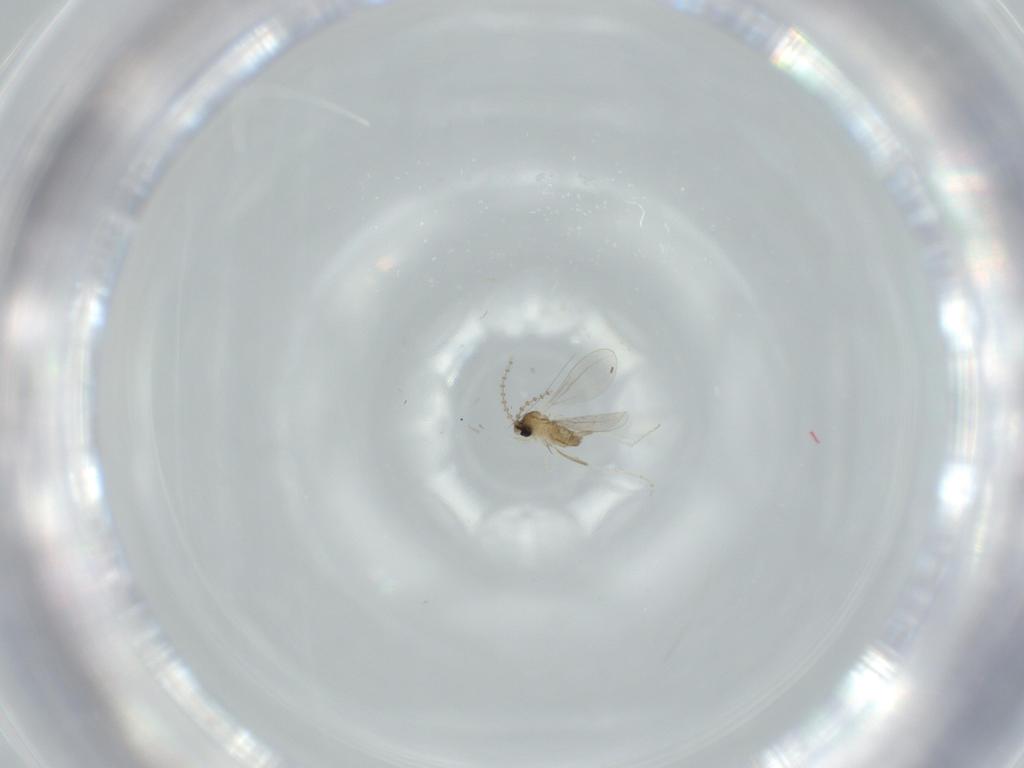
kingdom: Animalia
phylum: Arthropoda
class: Insecta
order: Diptera
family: Cecidomyiidae
